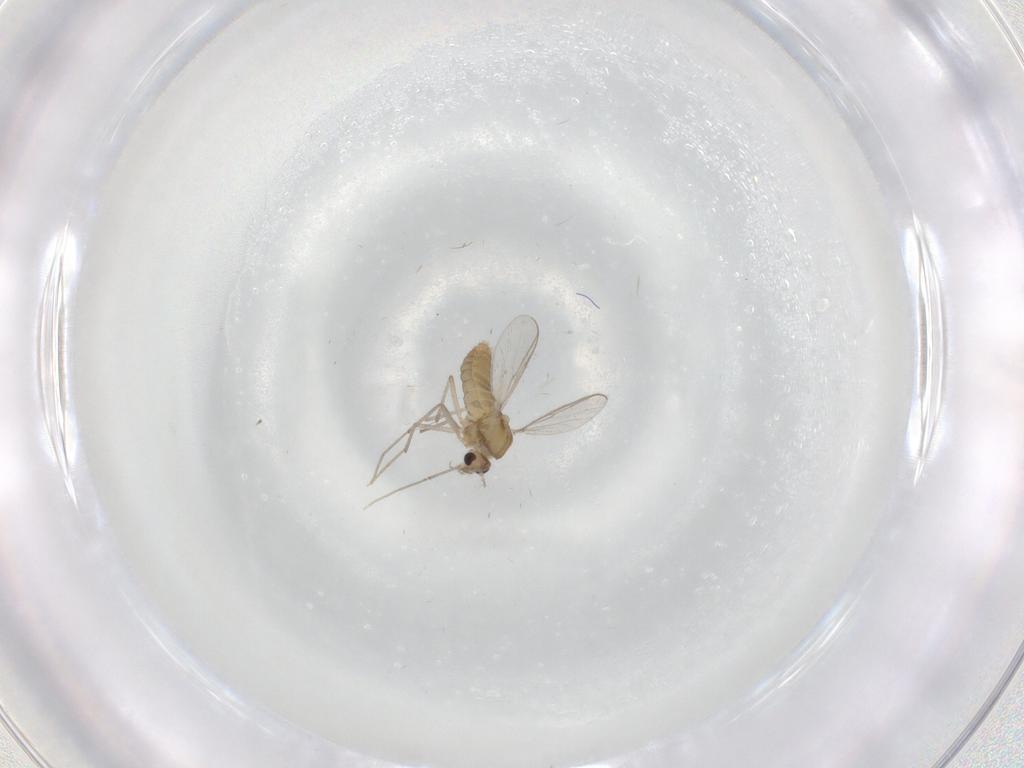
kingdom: Animalia
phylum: Arthropoda
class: Insecta
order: Diptera
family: Chironomidae
